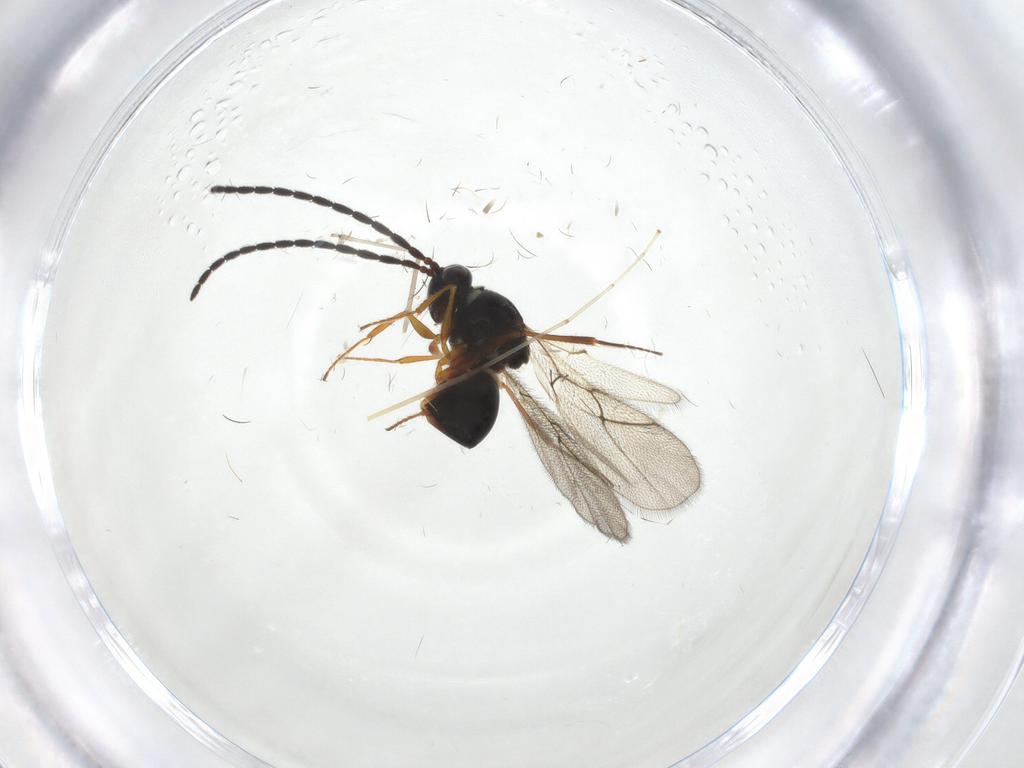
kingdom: Animalia
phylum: Arthropoda
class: Insecta
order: Hymenoptera
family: Figitidae
